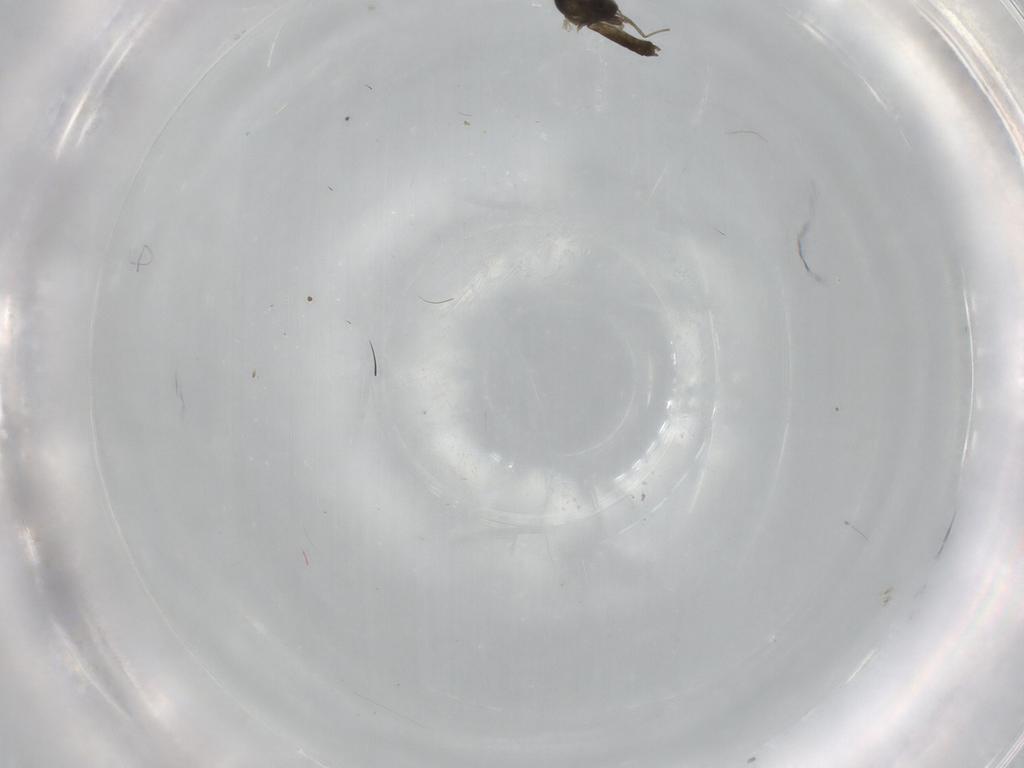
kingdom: Animalia
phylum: Arthropoda
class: Insecta
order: Diptera
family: Chironomidae
